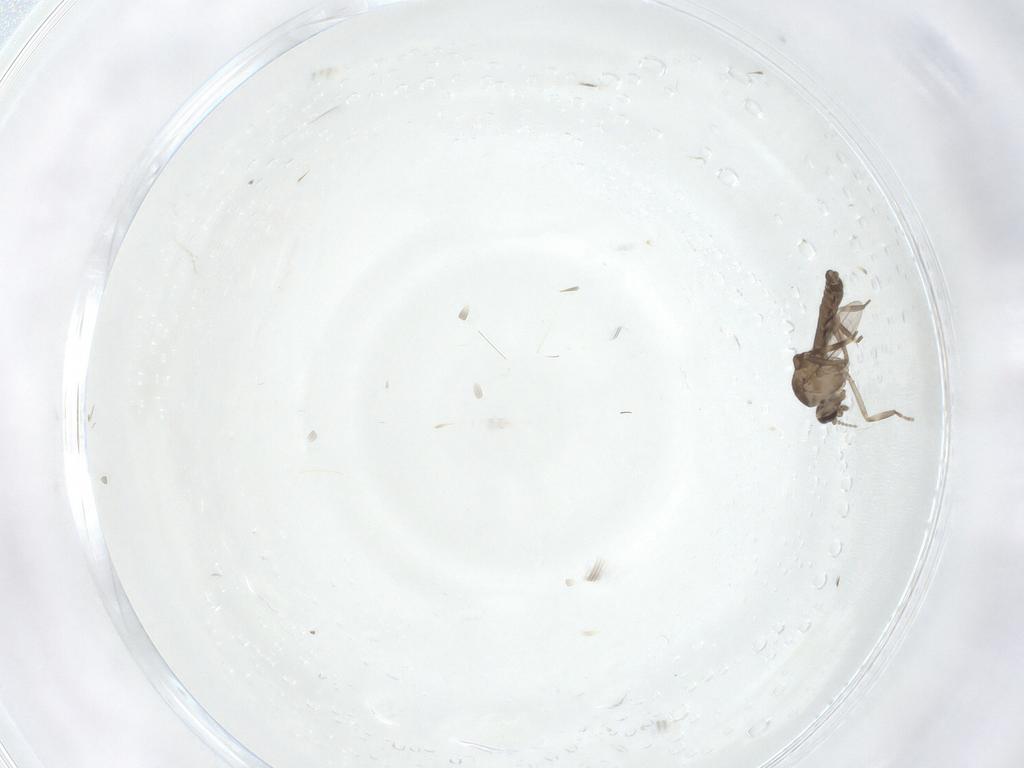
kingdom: Animalia
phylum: Arthropoda
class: Insecta
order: Diptera
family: Ceratopogonidae
